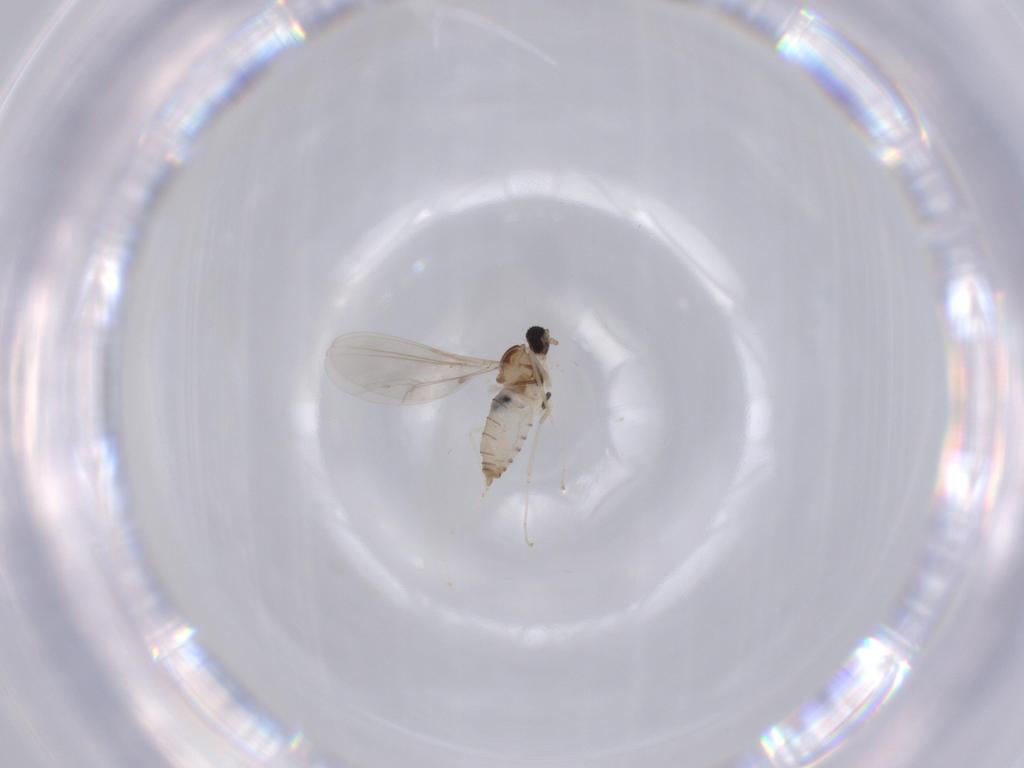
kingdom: Animalia
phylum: Arthropoda
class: Insecta
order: Diptera
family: Cecidomyiidae
